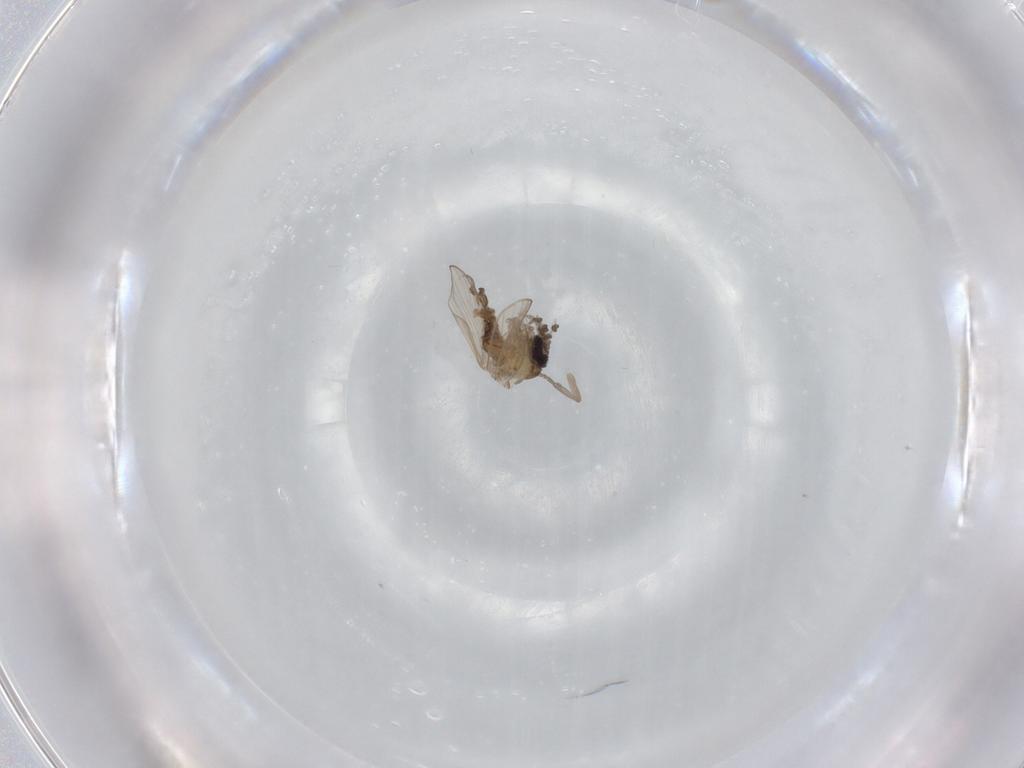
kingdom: Animalia
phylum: Arthropoda
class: Insecta
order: Diptera
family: Psychodidae
